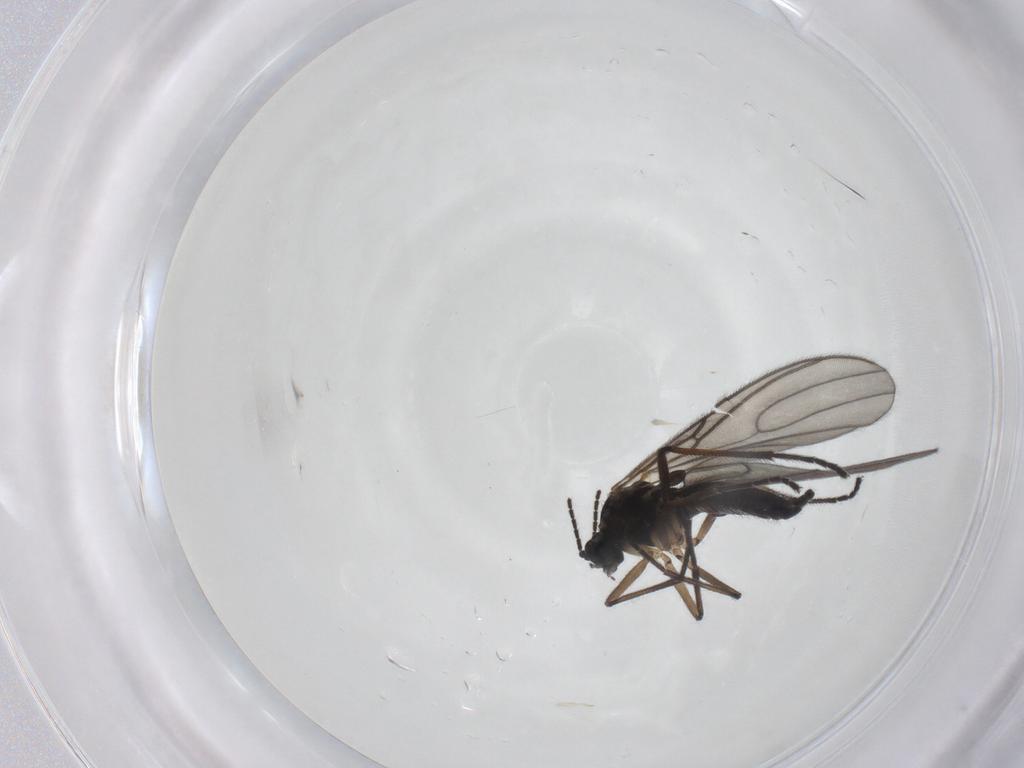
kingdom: Animalia
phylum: Arthropoda
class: Insecta
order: Diptera
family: Sciaridae
